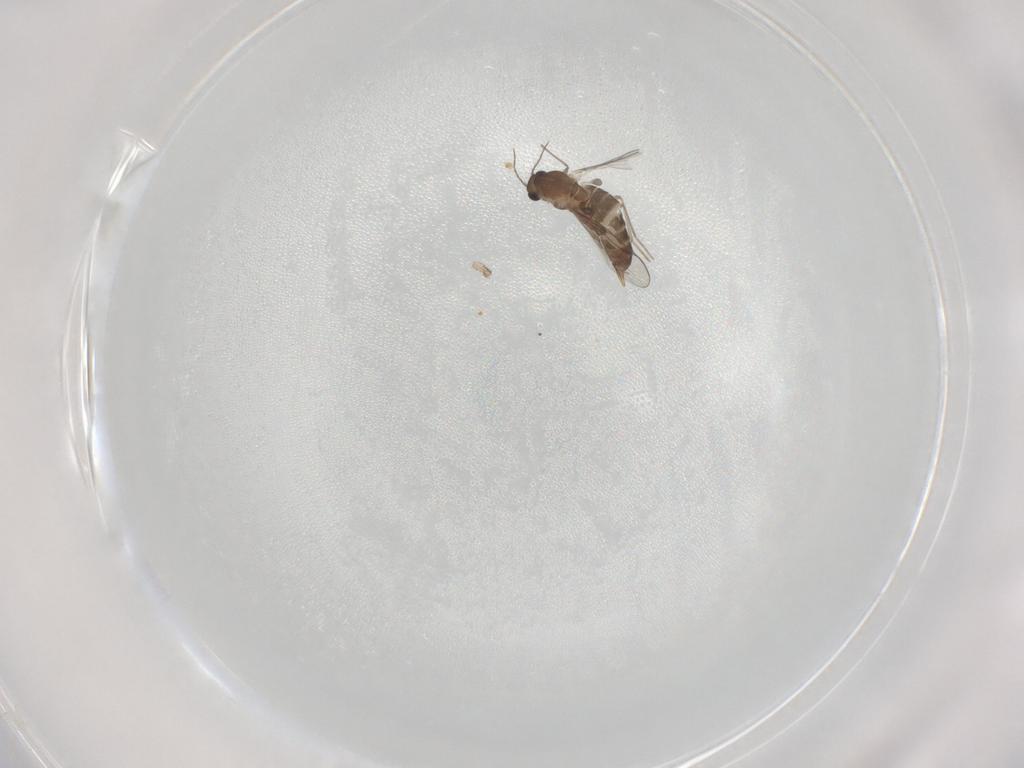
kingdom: Animalia
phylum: Arthropoda
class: Insecta
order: Diptera
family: Chironomidae
